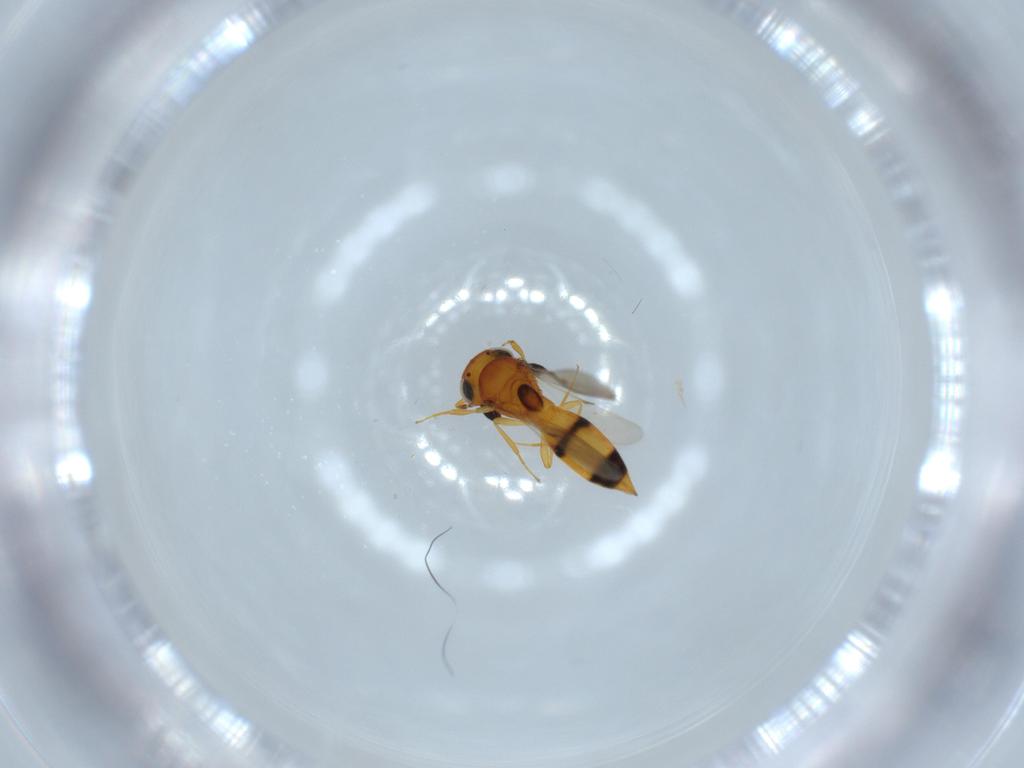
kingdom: Animalia
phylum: Arthropoda
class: Insecta
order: Hymenoptera
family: Scelionidae
